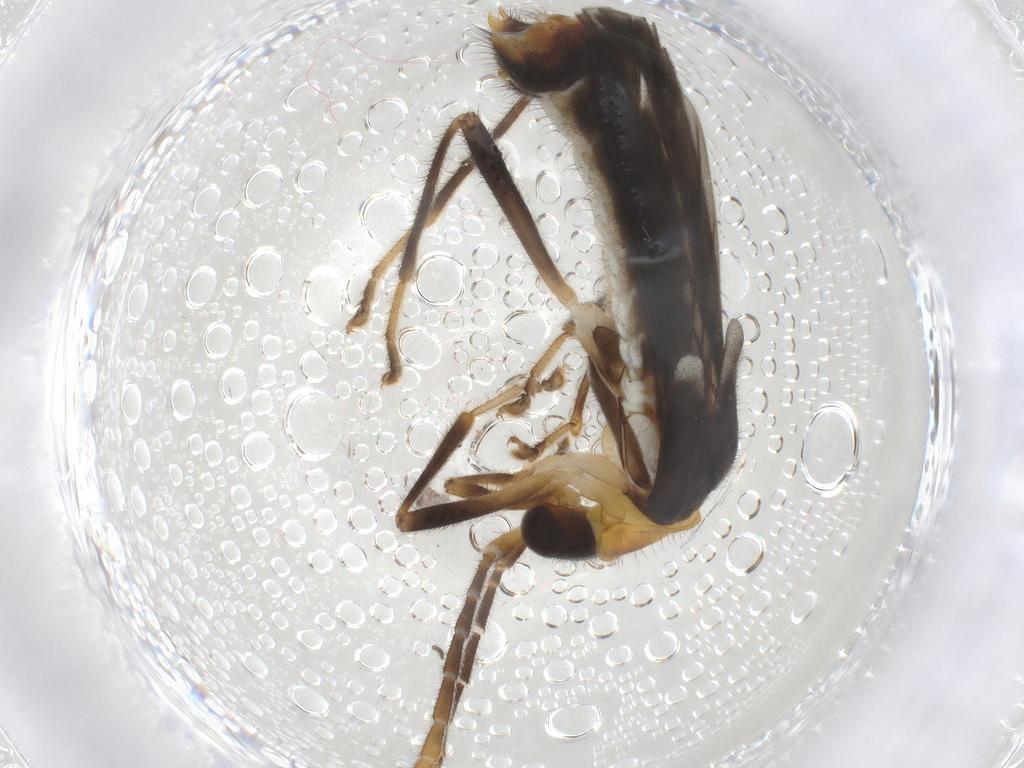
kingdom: Animalia
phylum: Arthropoda
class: Insecta
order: Coleoptera
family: Cantharidae
